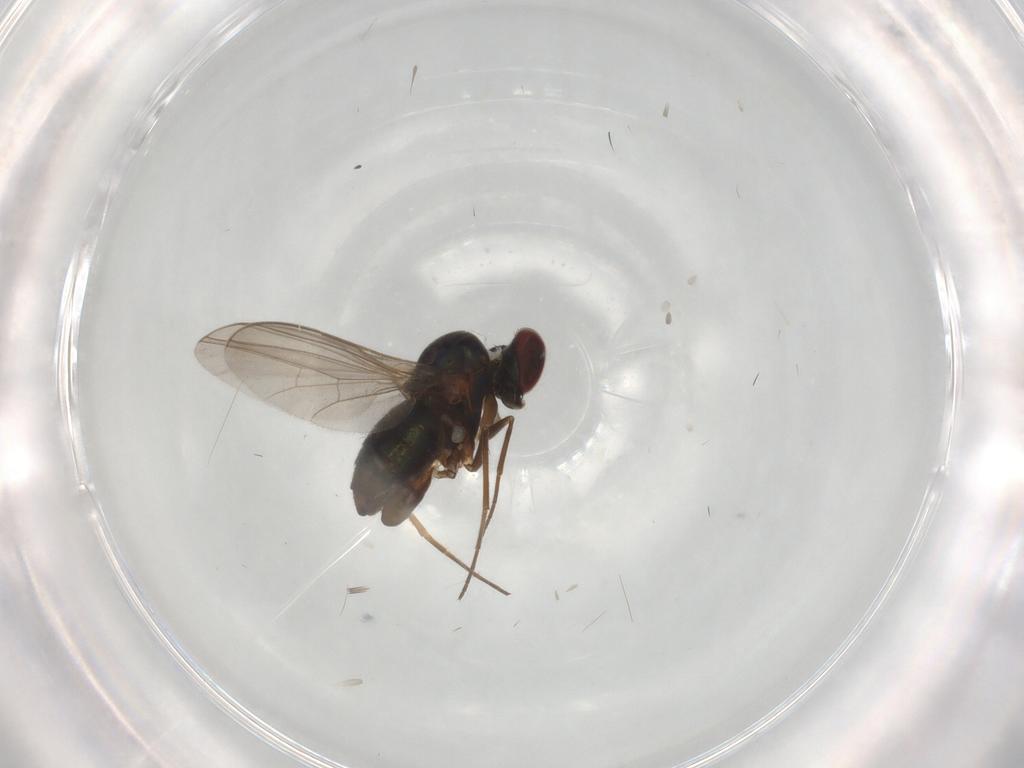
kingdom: Animalia
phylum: Arthropoda
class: Insecta
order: Diptera
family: Dolichopodidae
